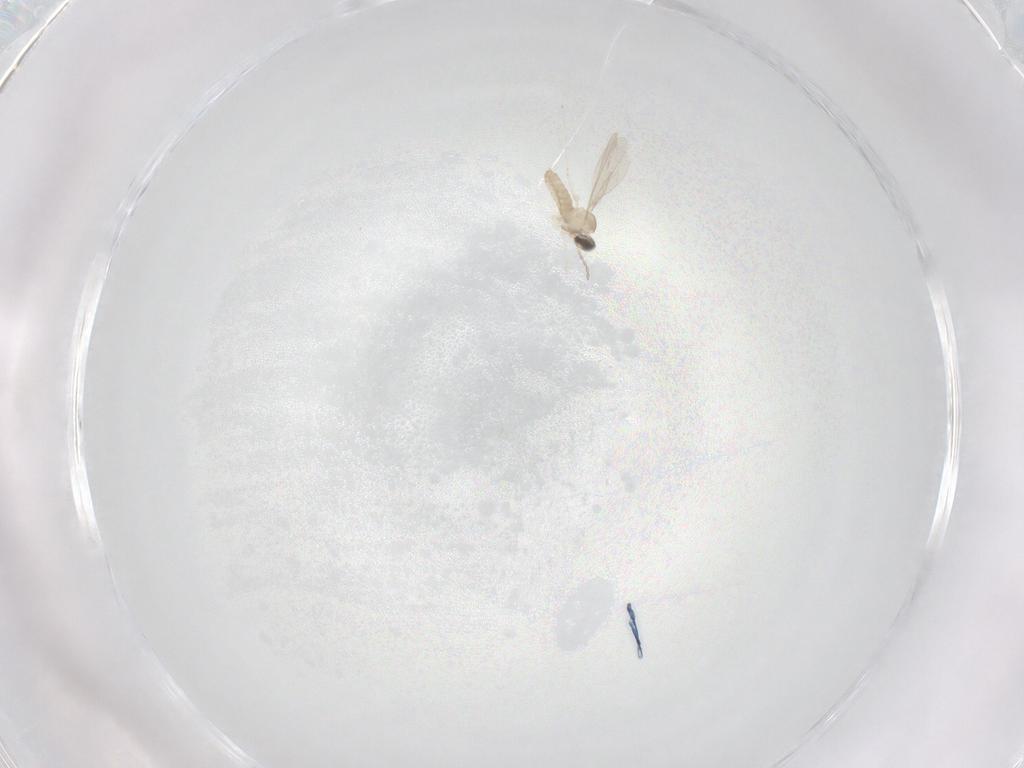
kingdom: Animalia
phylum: Arthropoda
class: Insecta
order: Diptera
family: Cecidomyiidae
